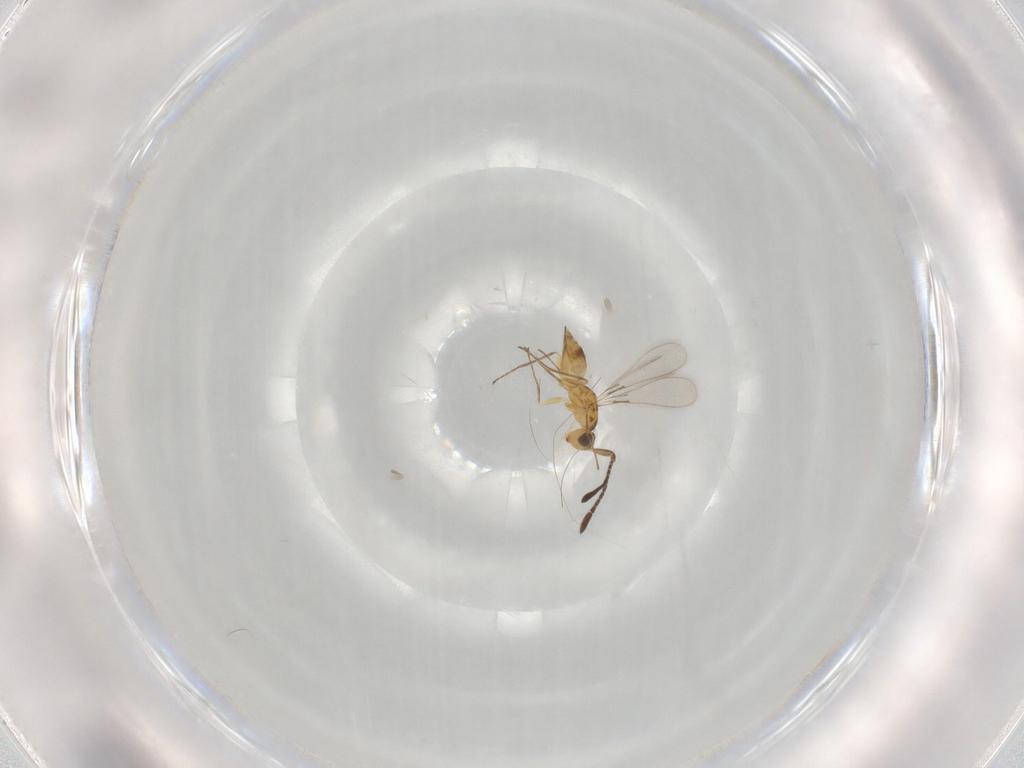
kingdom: Animalia
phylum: Arthropoda
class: Insecta
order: Hymenoptera
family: Mymaridae
